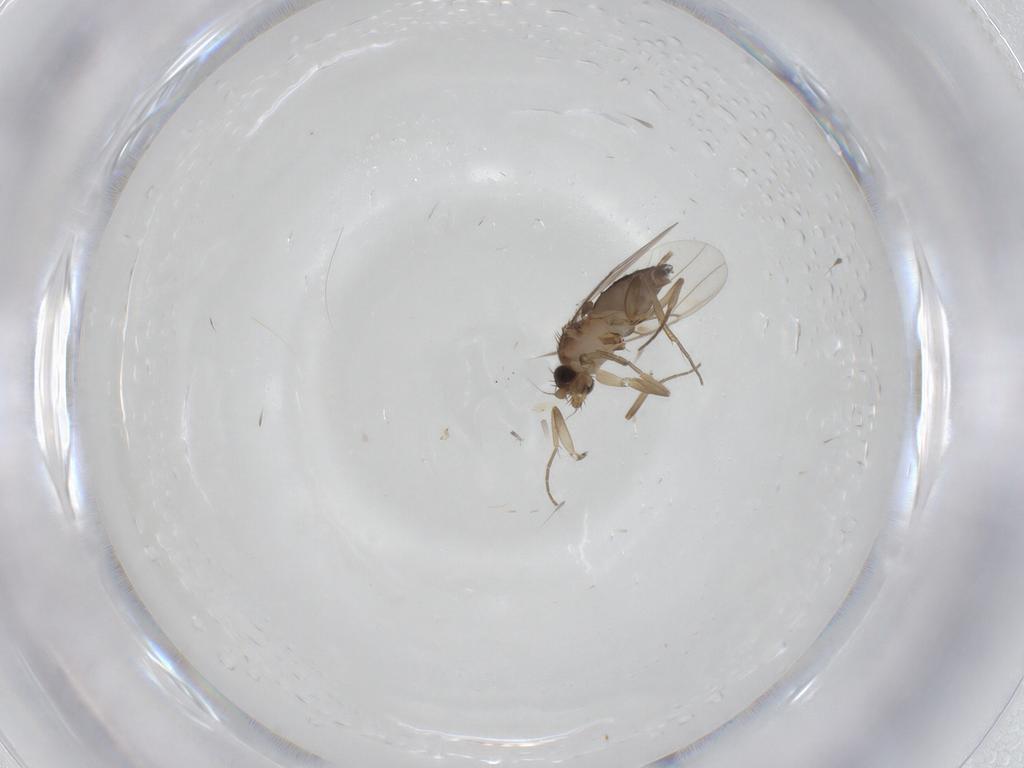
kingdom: Animalia
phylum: Arthropoda
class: Insecta
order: Diptera
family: Phoridae
